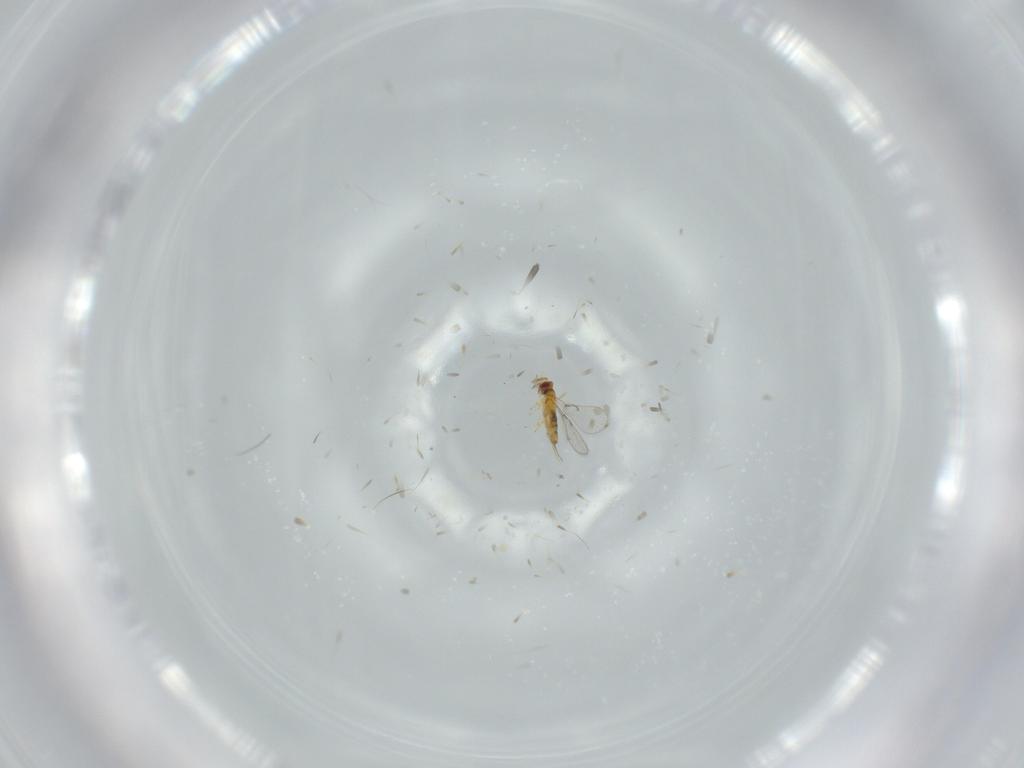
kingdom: Animalia
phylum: Arthropoda
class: Insecta
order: Hymenoptera
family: Trichogrammatidae
